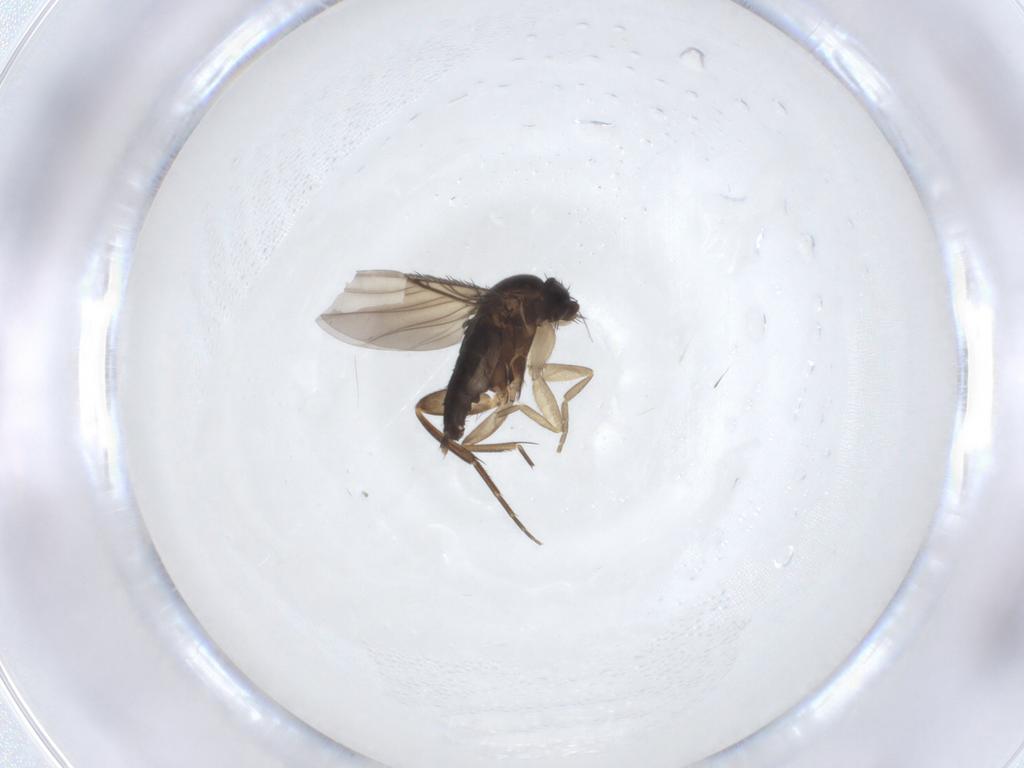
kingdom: Animalia
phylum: Arthropoda
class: Insecta
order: Diptera
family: Phoridae
